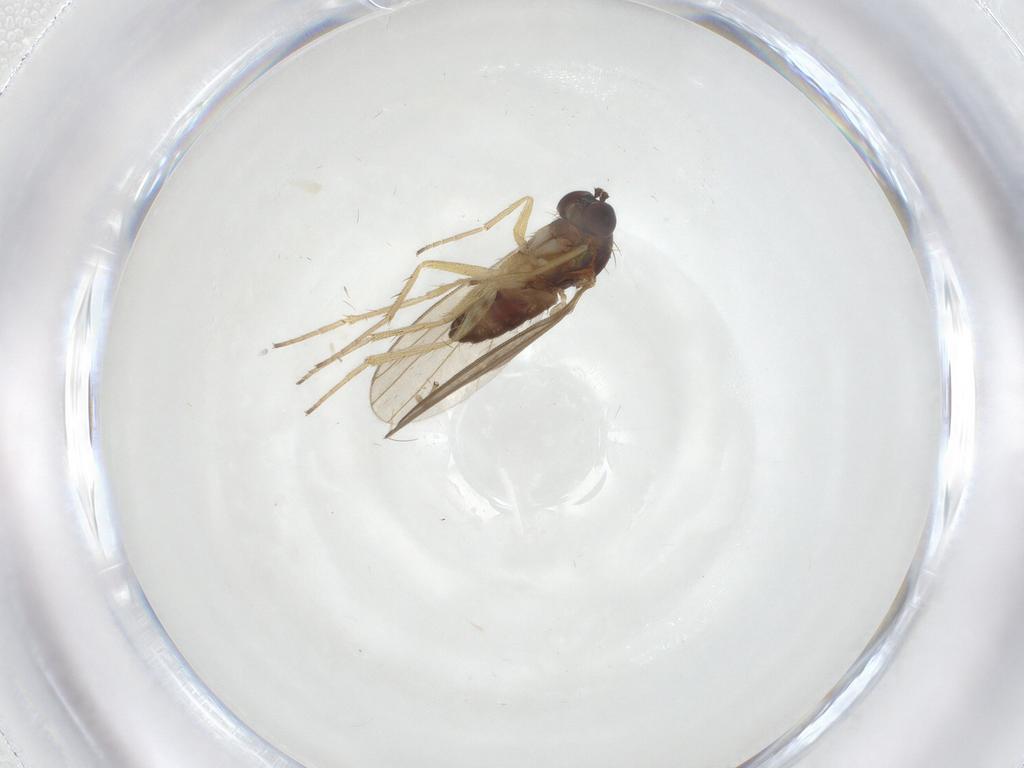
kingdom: Animalia
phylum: Arthropoda
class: Insecta
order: Diptera
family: Dolichopodidae
